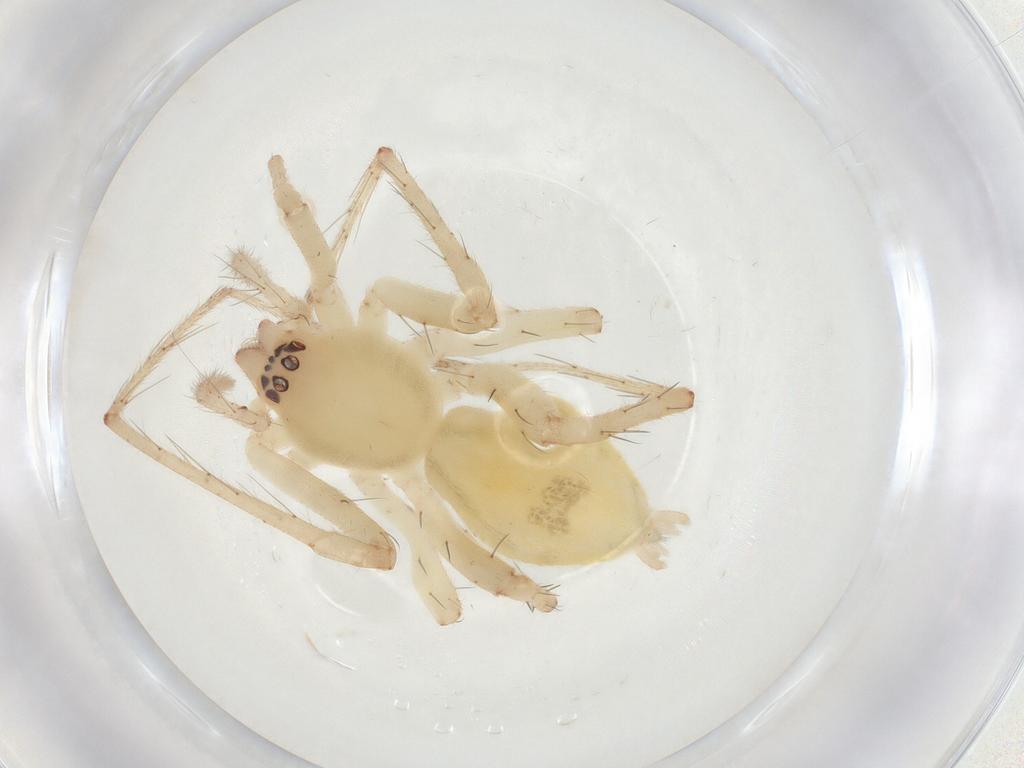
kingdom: Animalia
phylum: Arthropoda
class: Arachnida
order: Araneae
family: Anyphaenidae
